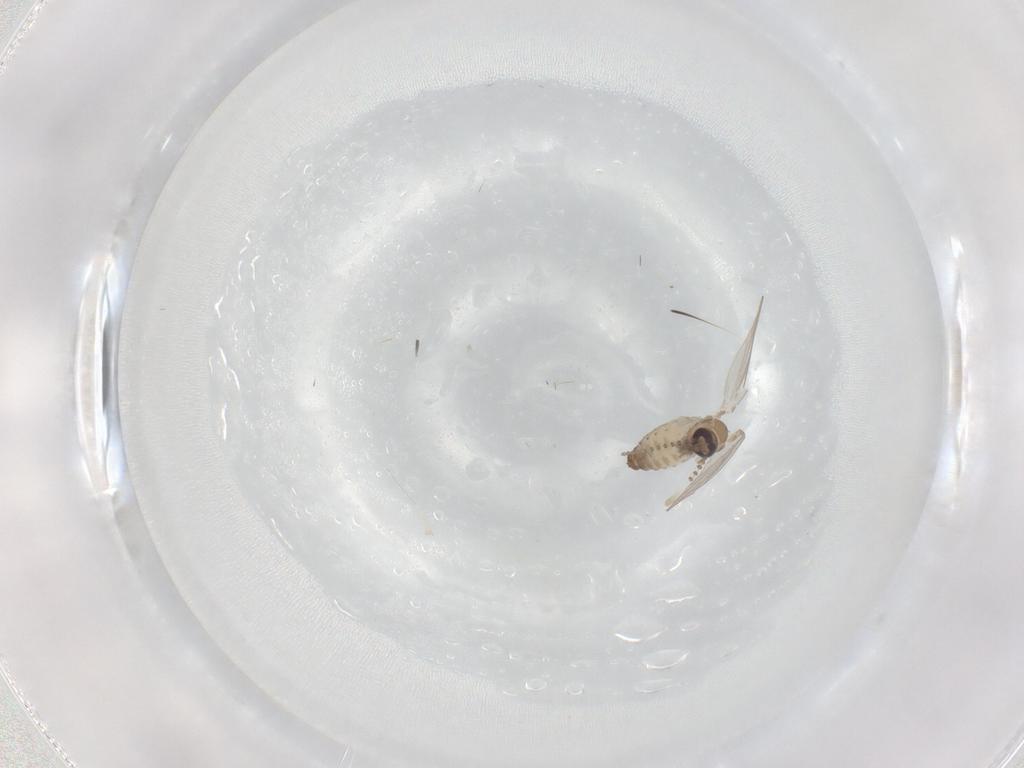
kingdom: Animalia
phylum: Arthropoda
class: Insecta
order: Diptera
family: Psychodidae
